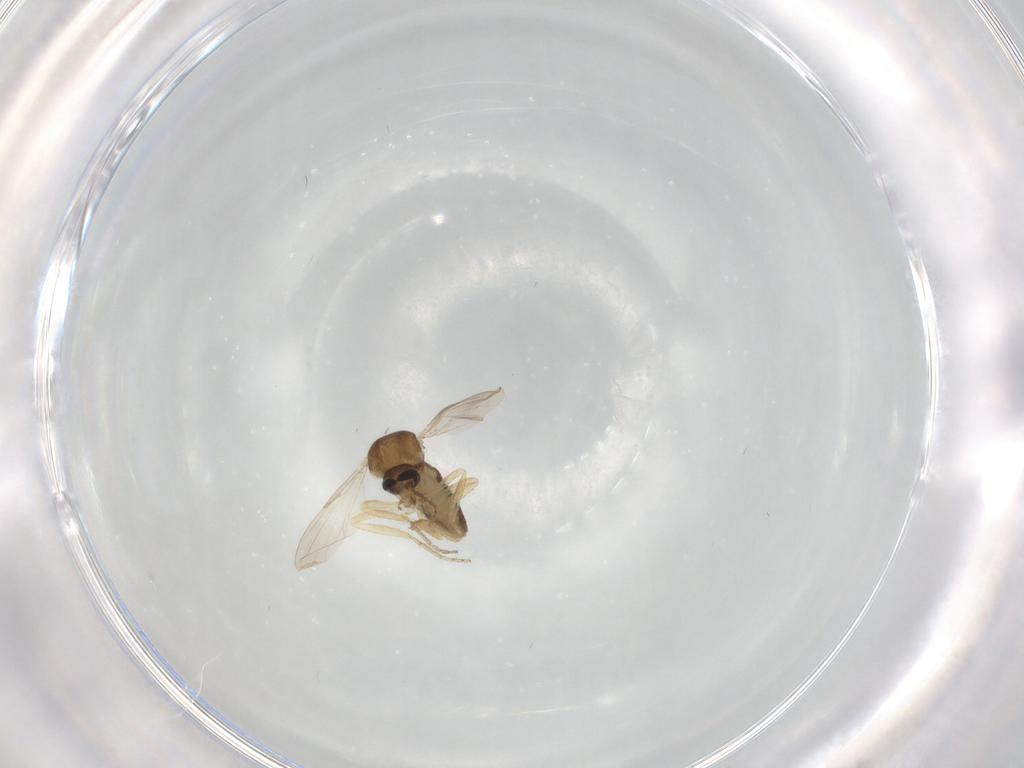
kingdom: Animalia
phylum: Arthropoda
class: Insecta
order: Diptera
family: Ceratopogonidae
